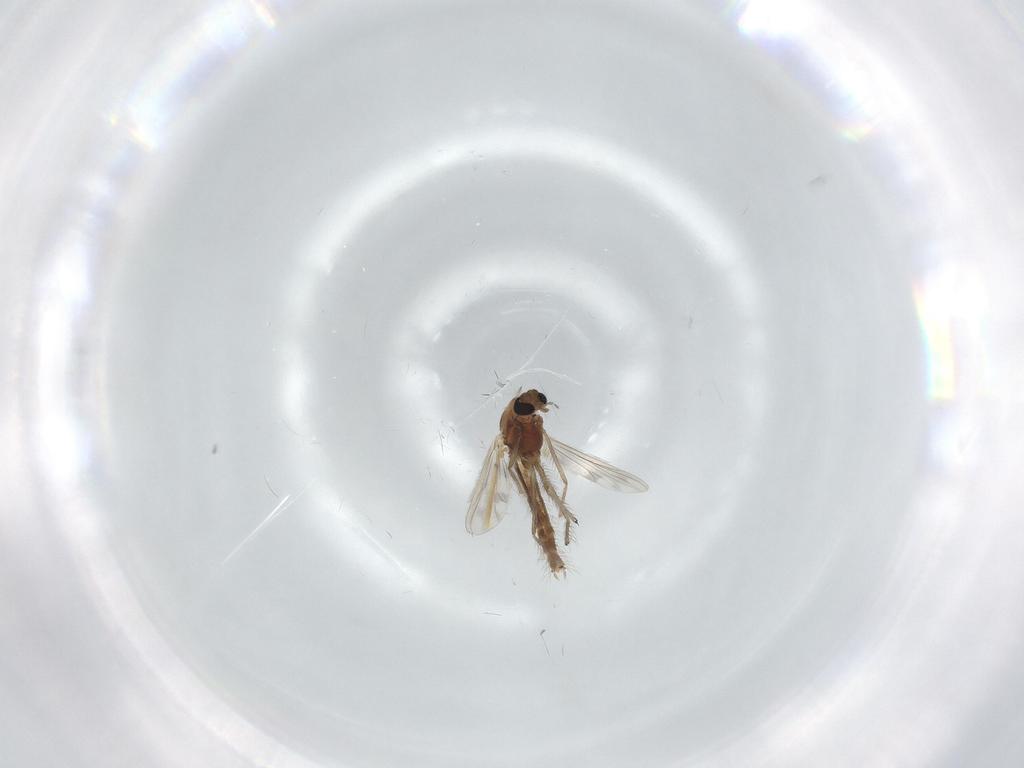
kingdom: Animalia
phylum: Arthropoda
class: Insecta
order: Diptera
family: Chironomidae
